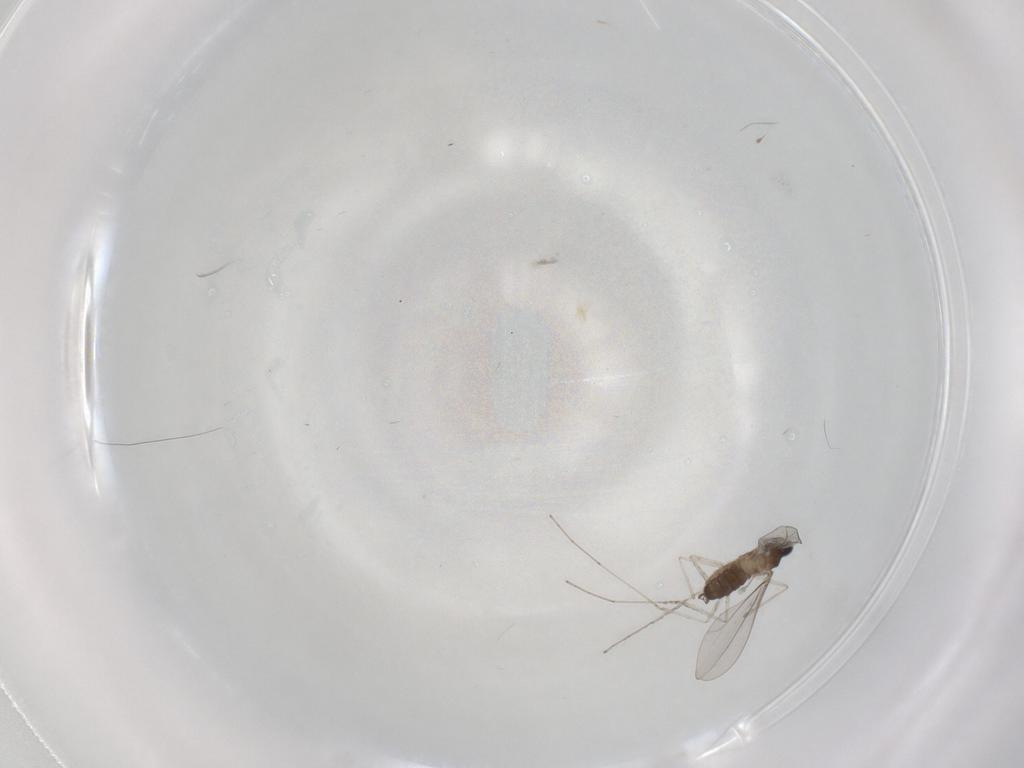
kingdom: Animalia
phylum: Arthropoda
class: Insecta
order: Diptera
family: Cecidomyiidae
